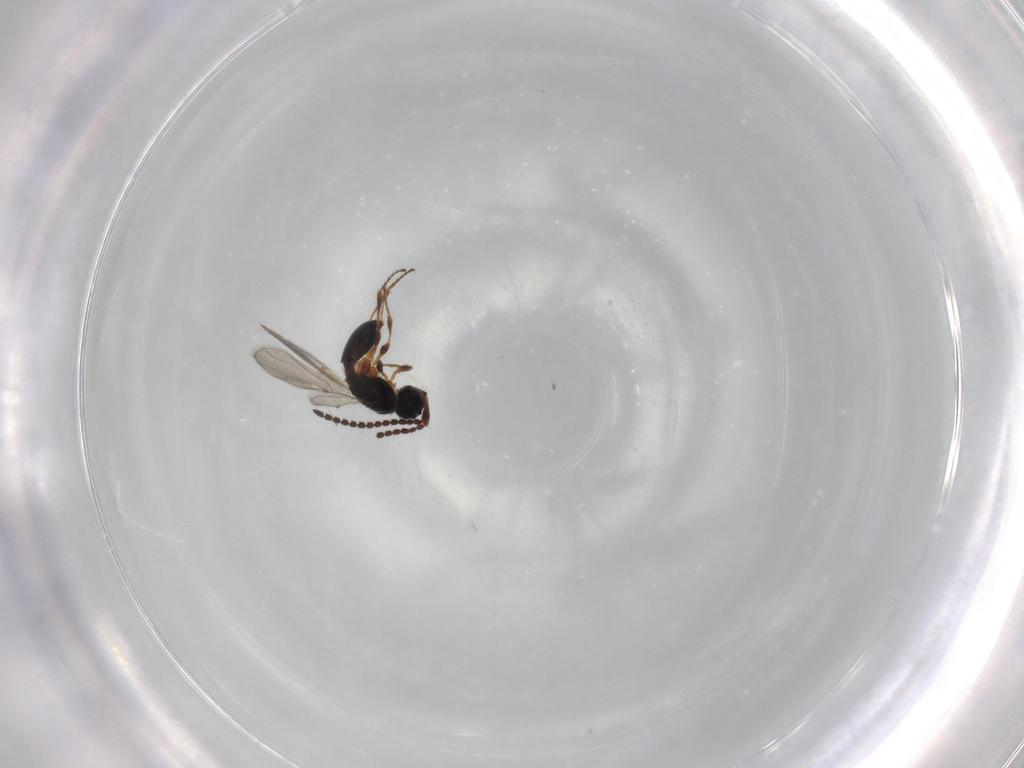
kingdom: Animalia
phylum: Arthropoda
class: Insecta
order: Hymenoptera
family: Diapriidae
